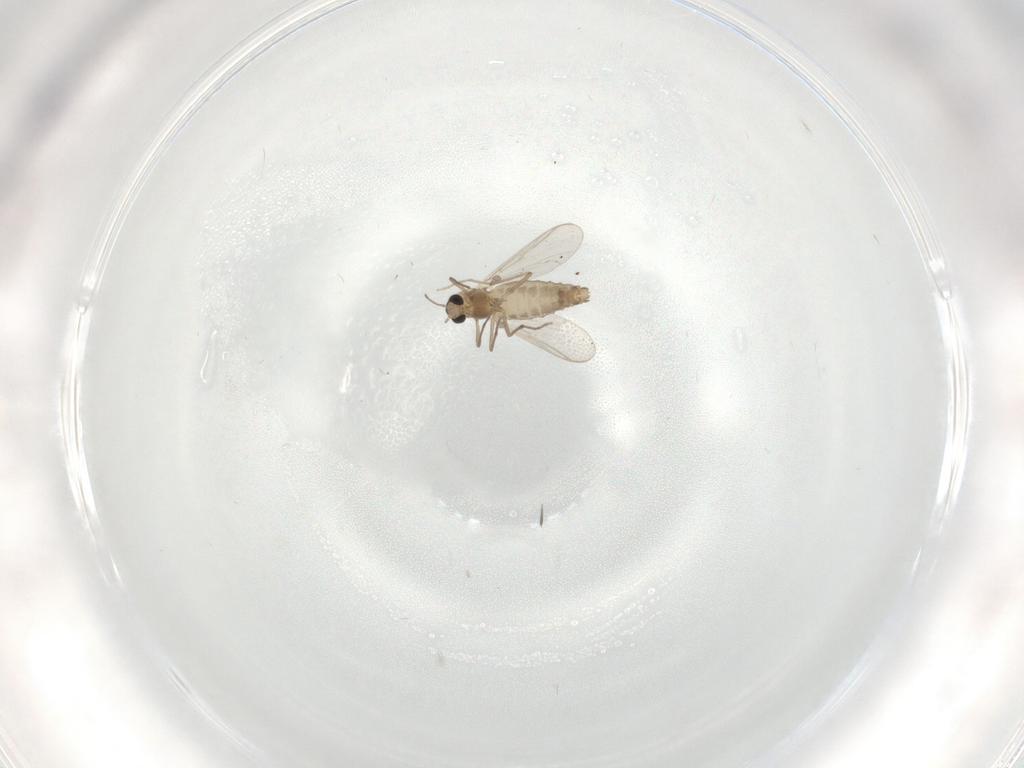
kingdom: Animalia
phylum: Arthropoda
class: Insecta
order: Diptera
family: Chironomidae
